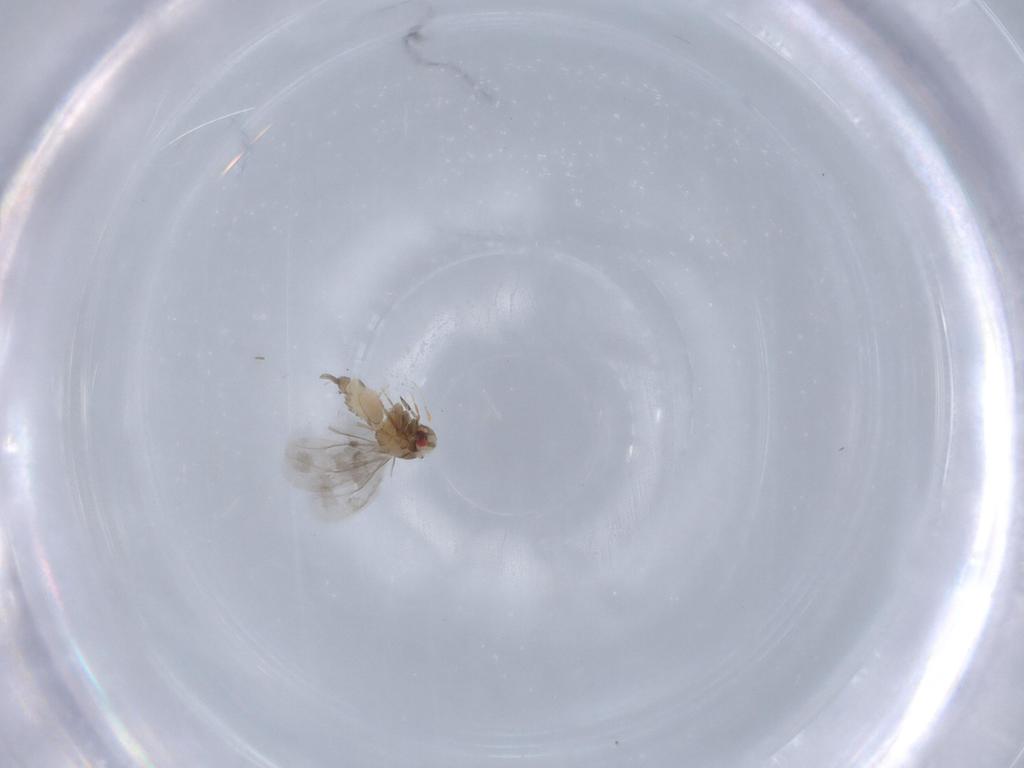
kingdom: Animalia
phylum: Arthropoda
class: Insecta
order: Hemiptera
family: Aleyrodidae
